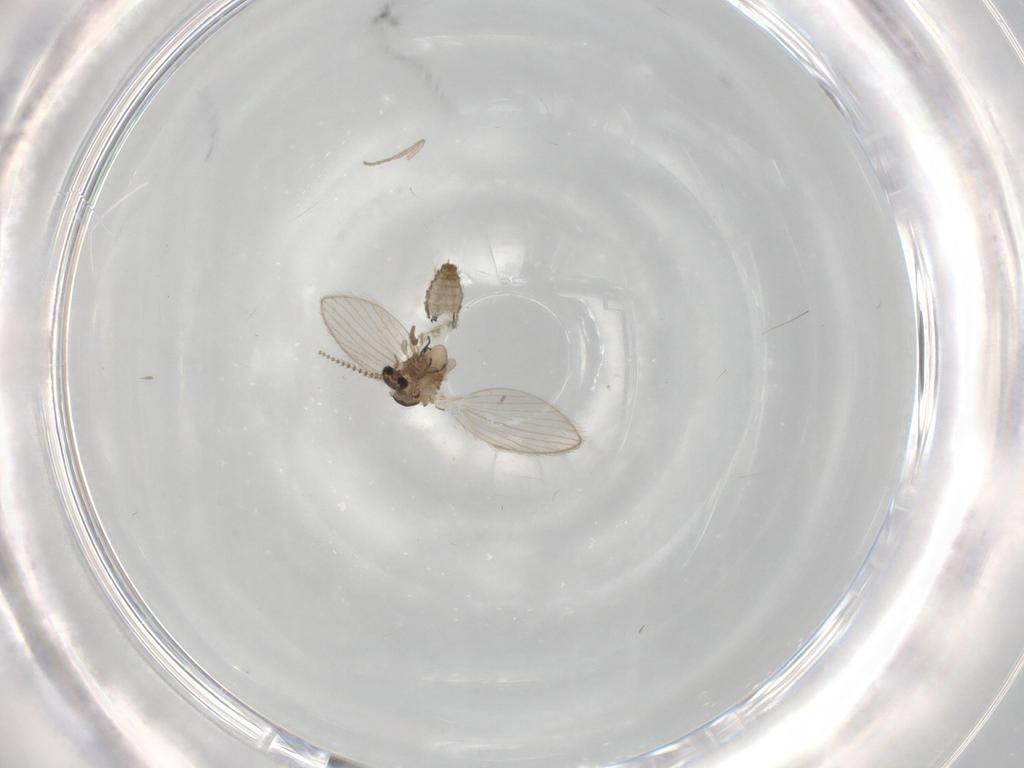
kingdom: Animalia
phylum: Arthropoda
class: Insecta
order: Diptera
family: Psychodidae
